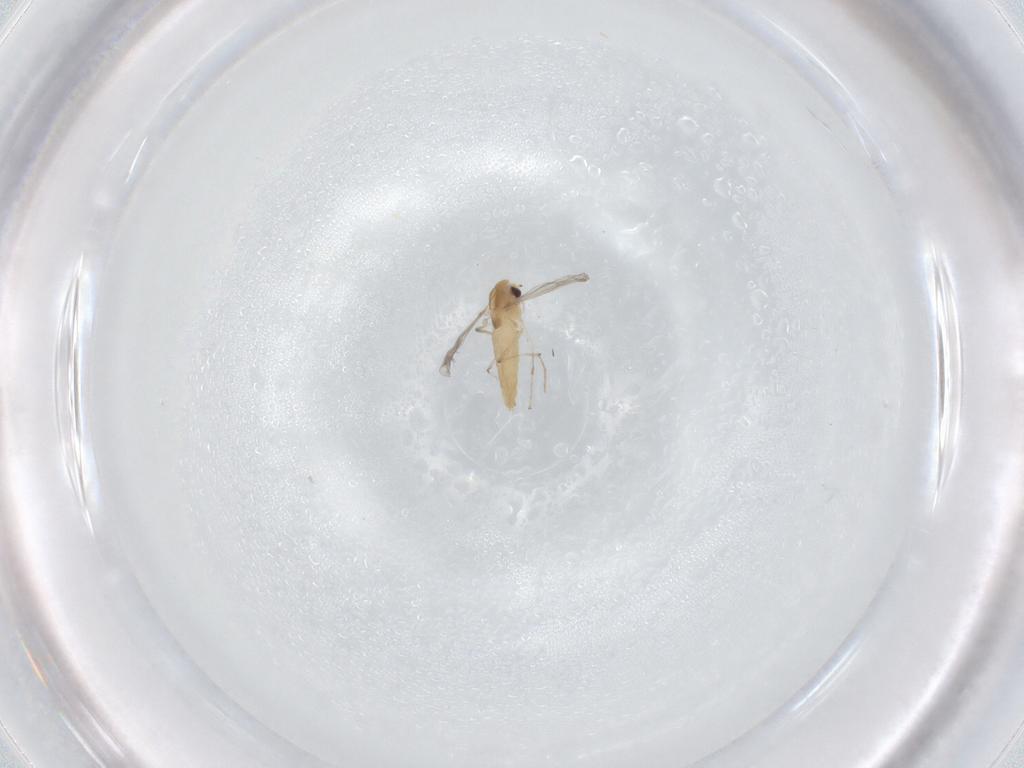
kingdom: Animalia
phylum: Arthropoda
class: Insecta
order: Diptera
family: Chironomidae
